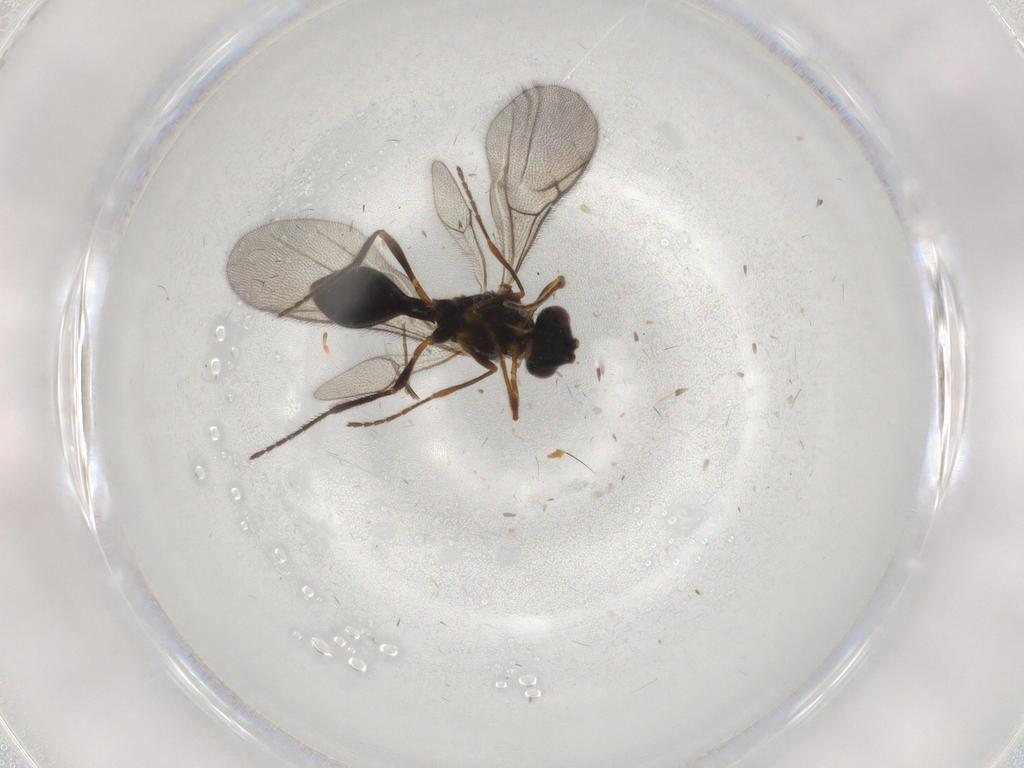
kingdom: Animalia
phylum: Arthropoda
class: Insecta
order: Hymenoptera
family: Diapriidae
